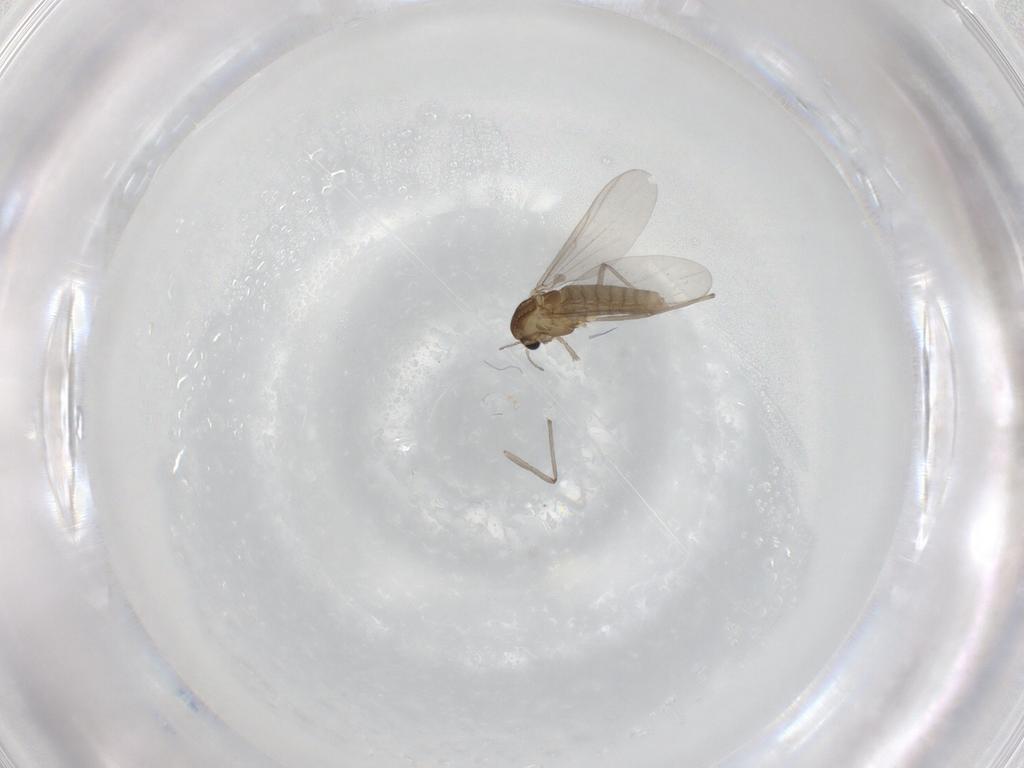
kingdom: Animalia
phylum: Arthropoda
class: Insecta
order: Diptera
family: Chironomidae
